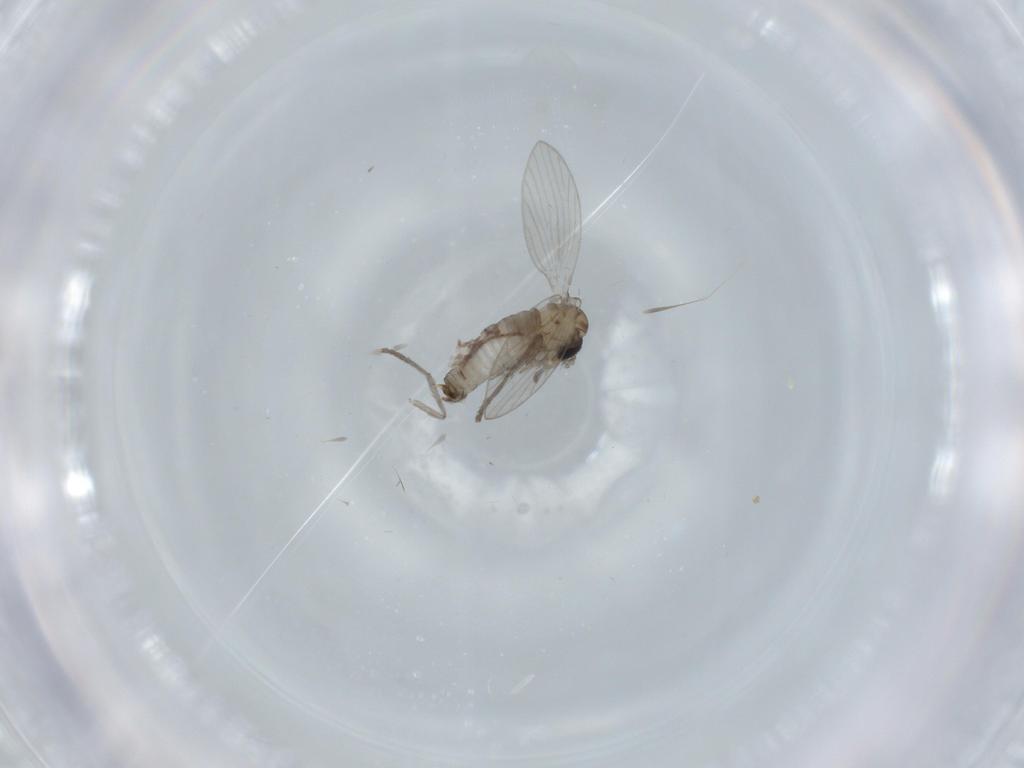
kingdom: Animalia
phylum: Arthropoda
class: Insecta
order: Diptera
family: Psychodidae
